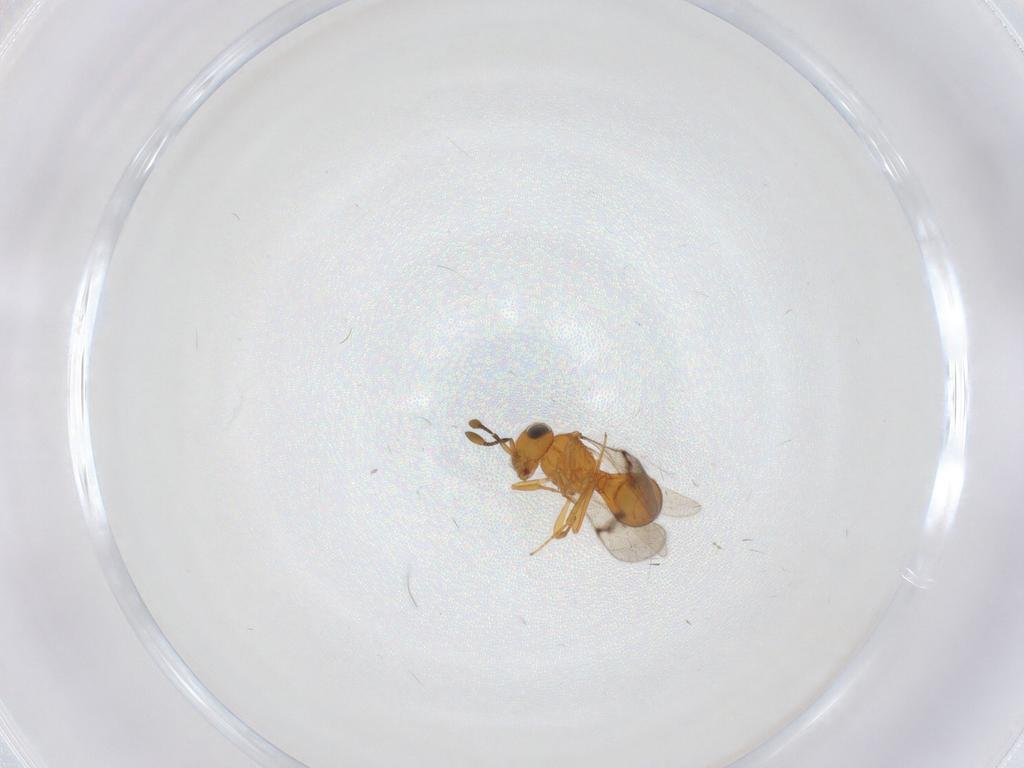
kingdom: Animalia
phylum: Arthropoda
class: Insecta
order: Hymenoptera
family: Scelionidae
